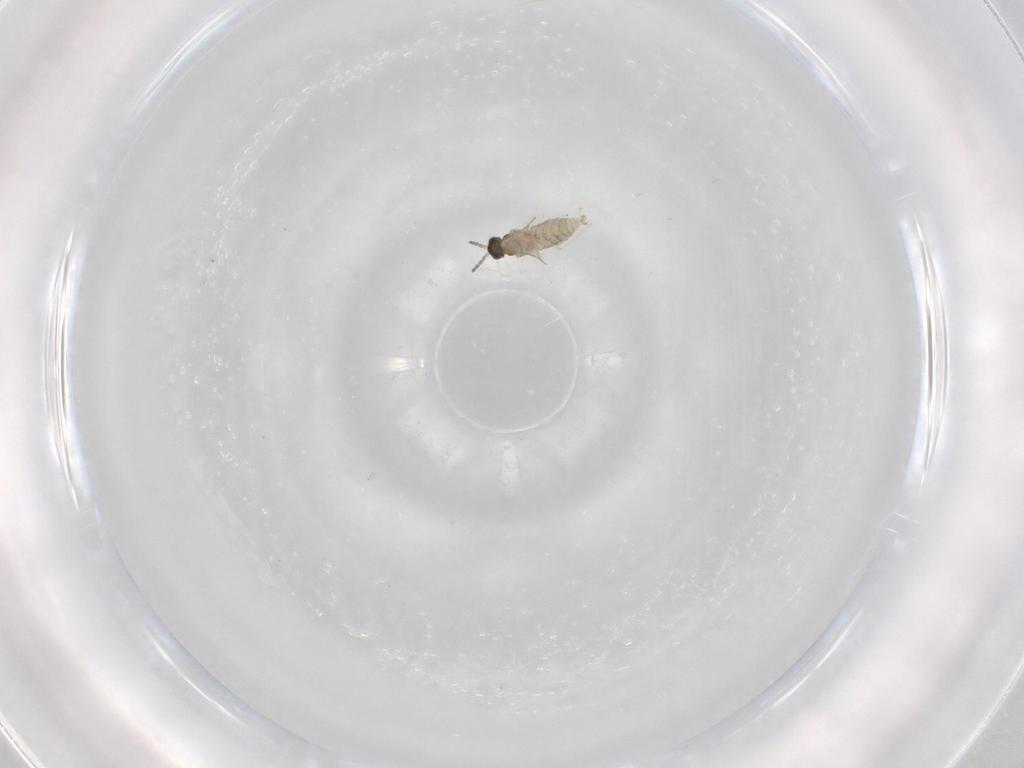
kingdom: Animalia
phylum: Arthropoda
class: Insecta
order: Diptera
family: Cecidomyiidae
